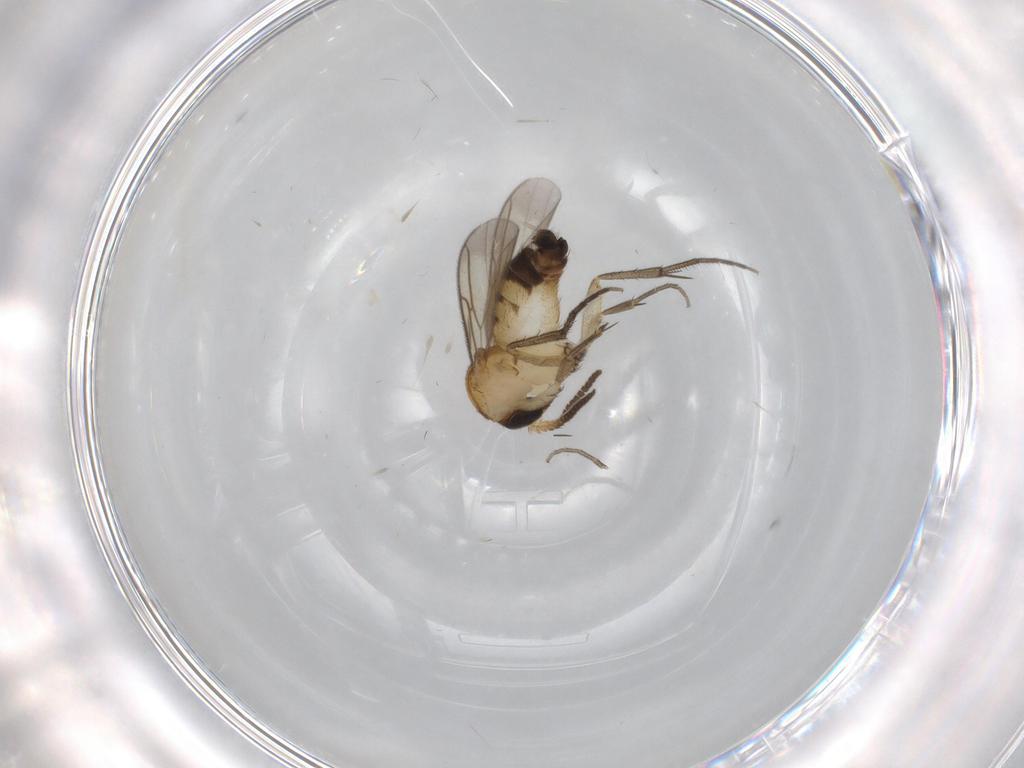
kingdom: Animalia
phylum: Arthropoda
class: Insecta
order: Diptera
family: Mycetophilidae
